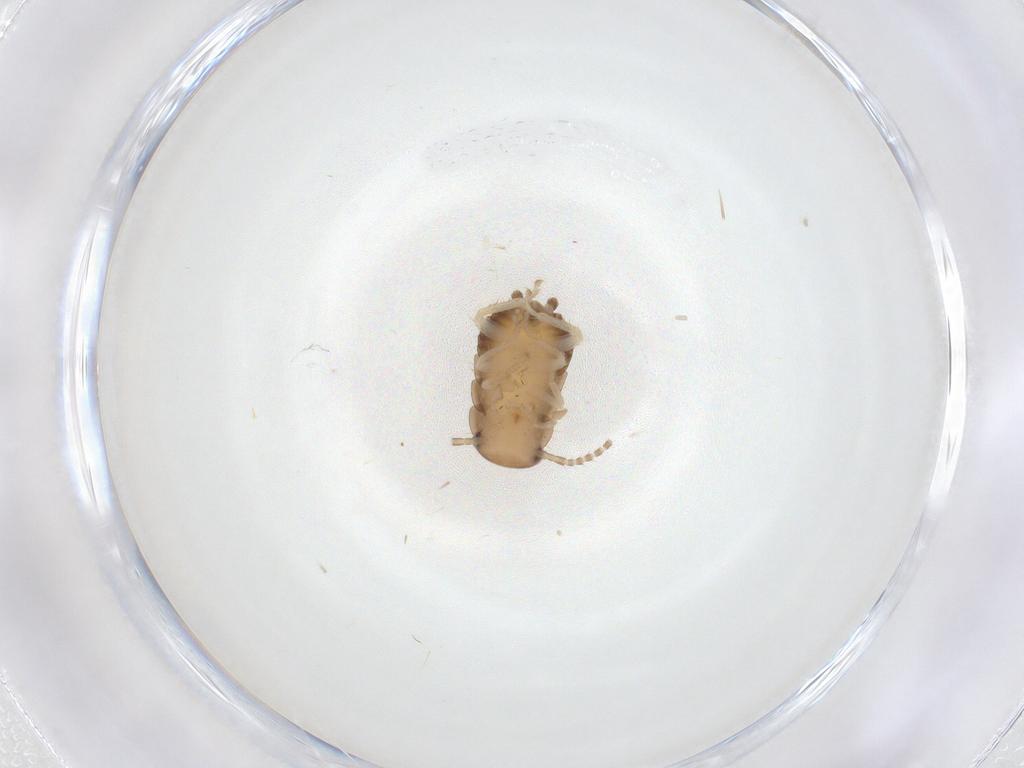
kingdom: Animalia
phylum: Arthropoda
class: Insecta
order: Blattodea
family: Ectobiidae
